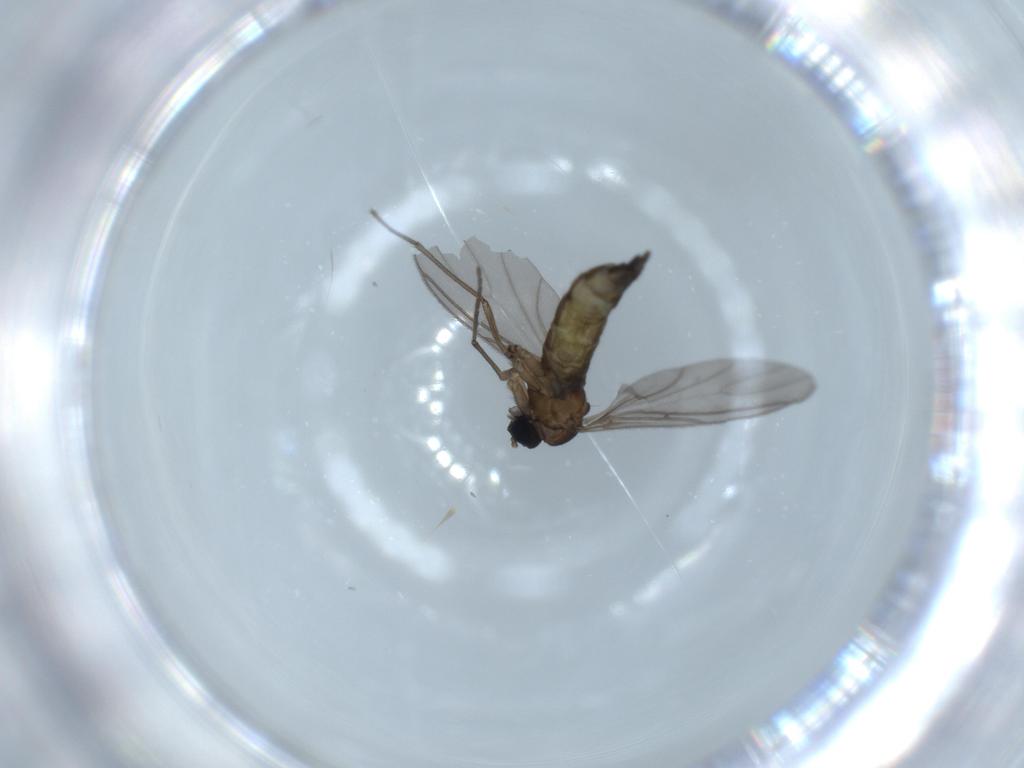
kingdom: Animalia
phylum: Arthropoda
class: Insecta
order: Diptera
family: Sciaridae
